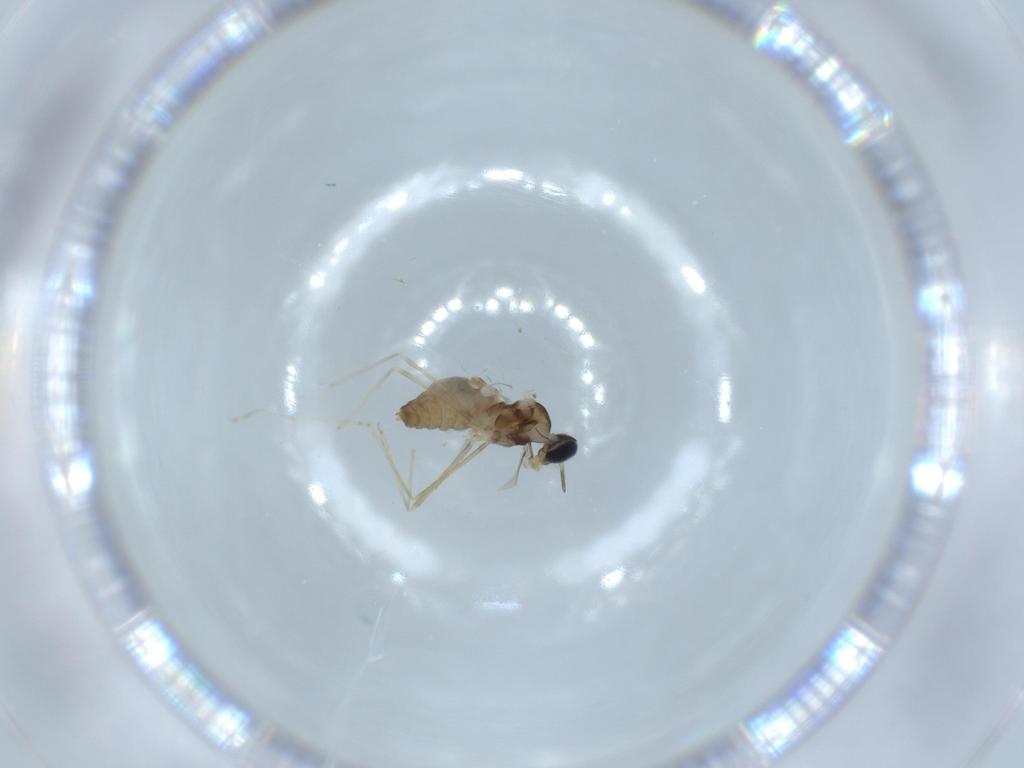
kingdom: Animalia
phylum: Arthropoda
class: Insecta
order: Diptera
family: Cecidomyiidae
